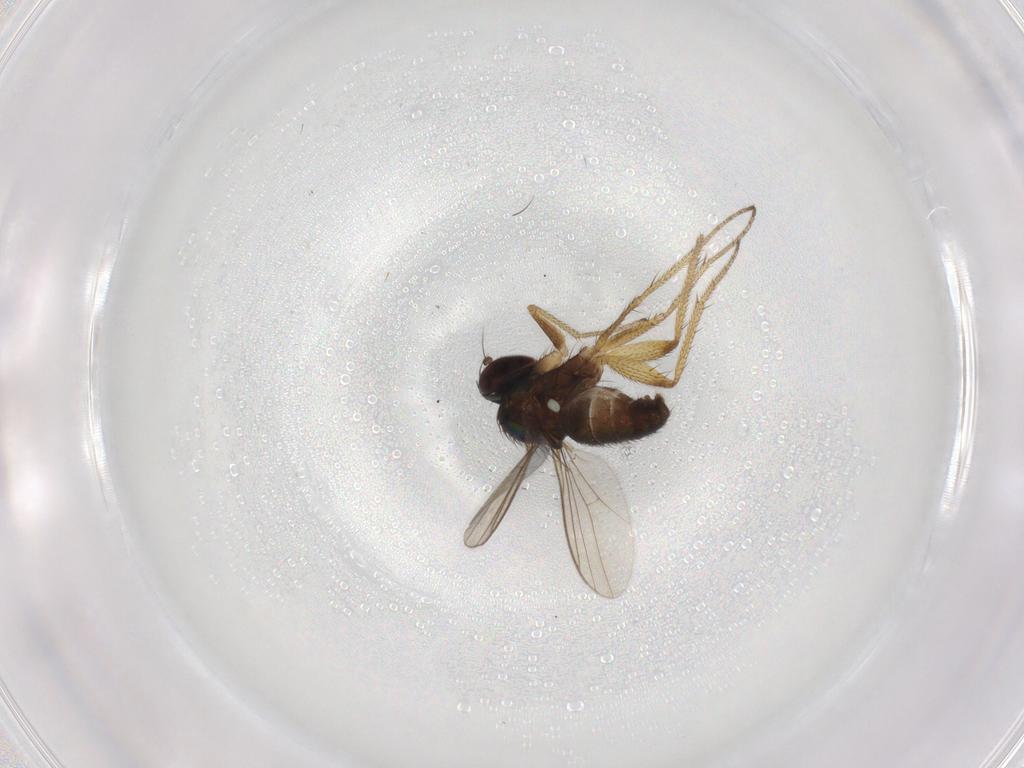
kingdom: Animalia
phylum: Arthropoda
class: Insecta
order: Diptera
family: Dolichopodidae
